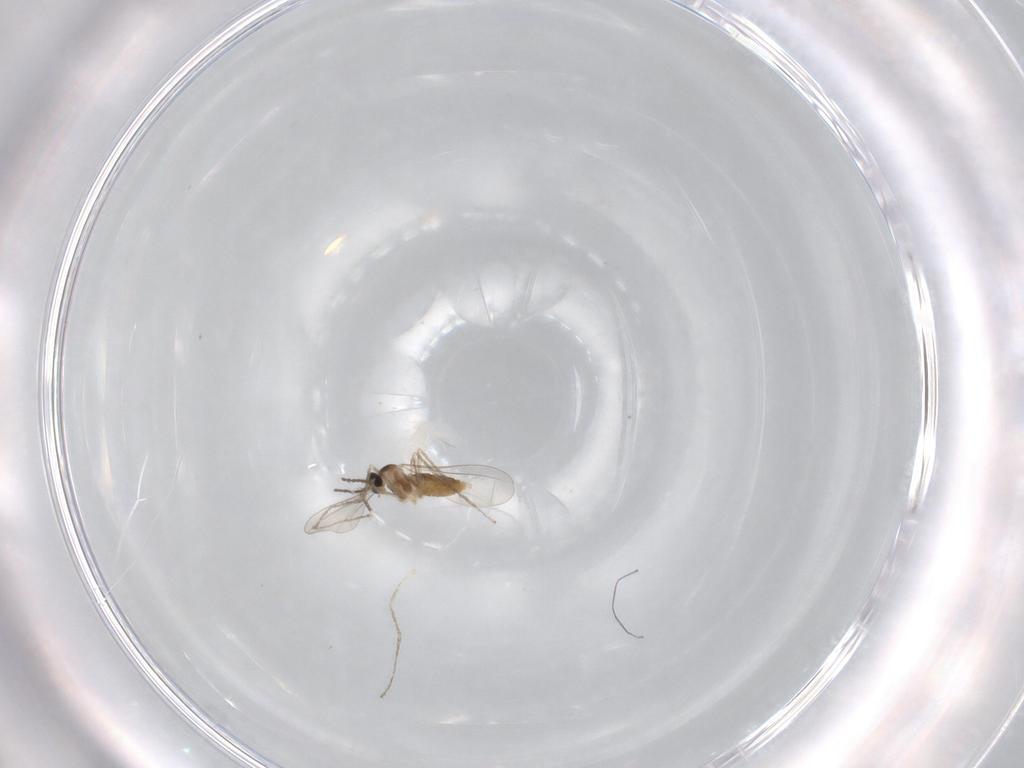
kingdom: Animalia
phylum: Arthropoda
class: Insecta
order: Diptera
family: Cecidomyiidae
